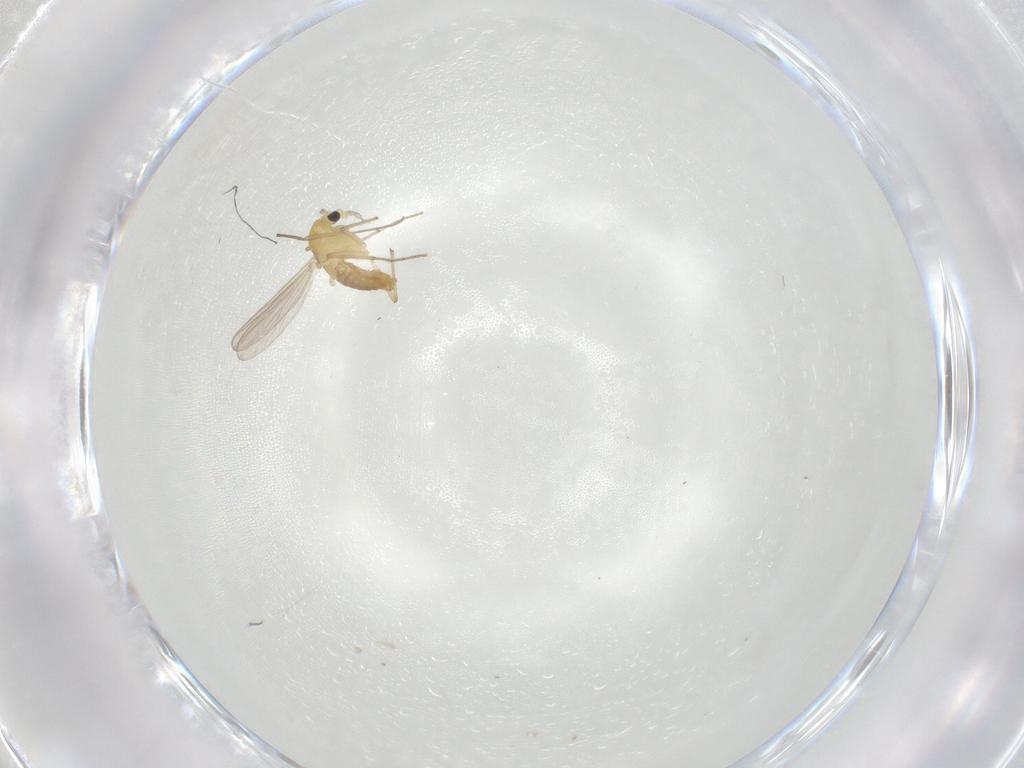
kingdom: Animalia
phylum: Arthropoda
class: Insecta
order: Diptera
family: Chironomidae
